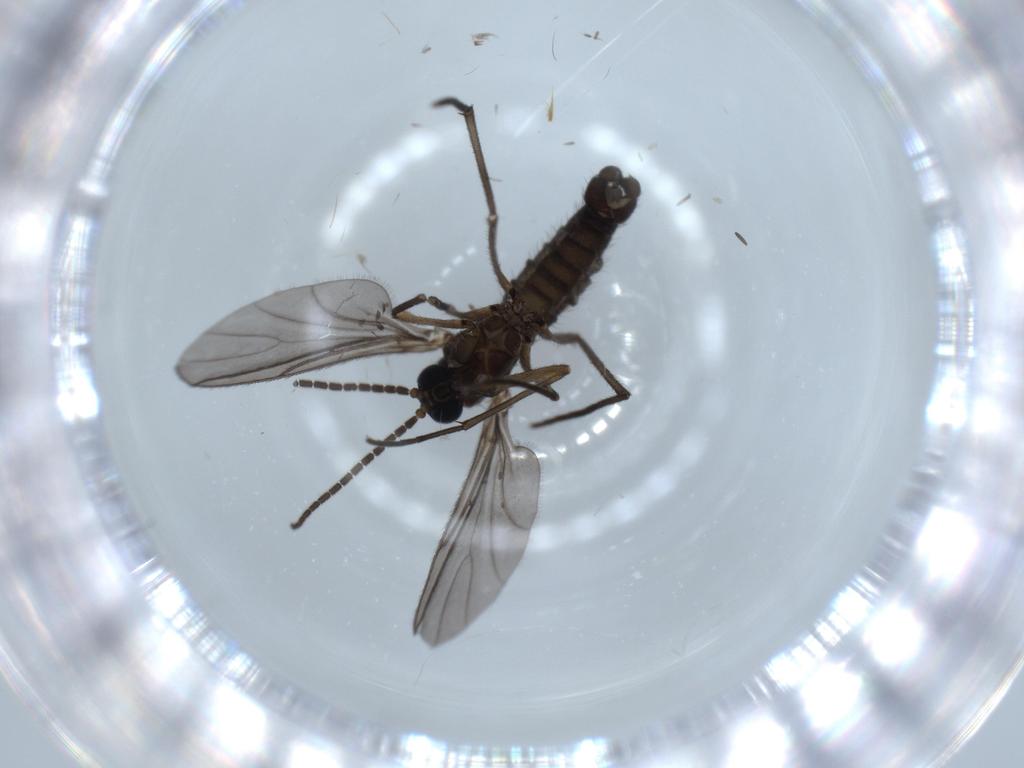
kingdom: Animalia
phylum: Arthropoda
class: Insecta
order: Diptera
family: Sciaridae
